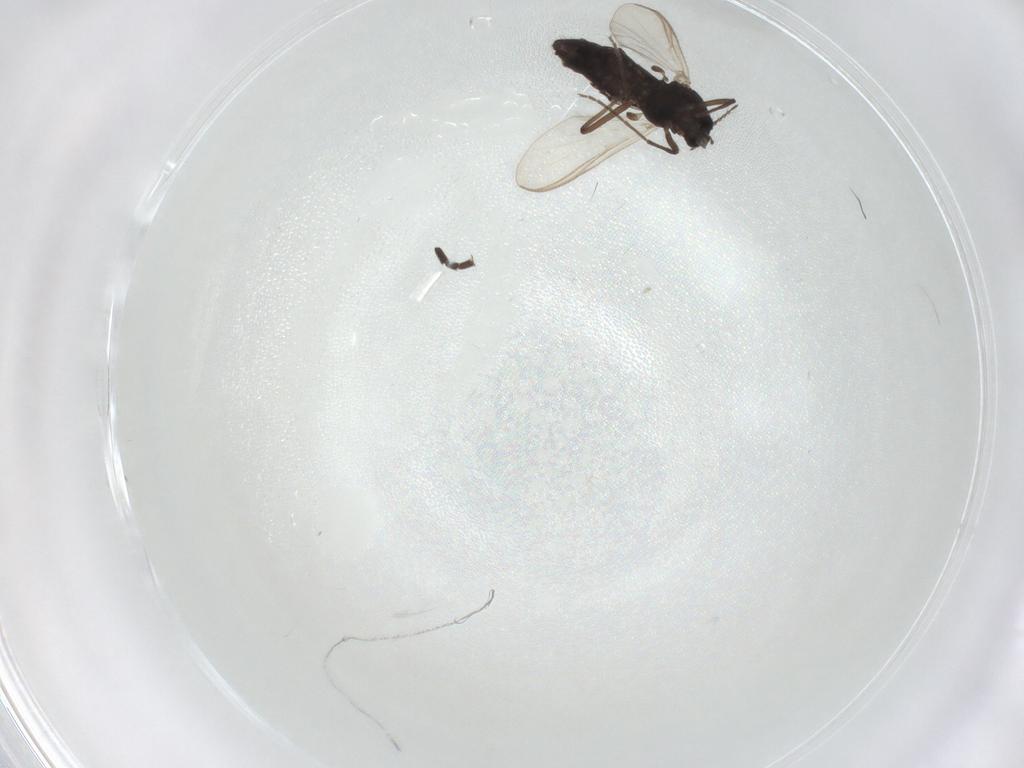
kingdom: Animalia
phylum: Arthropoda
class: Insecta
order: Diptera
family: Chironomidae
